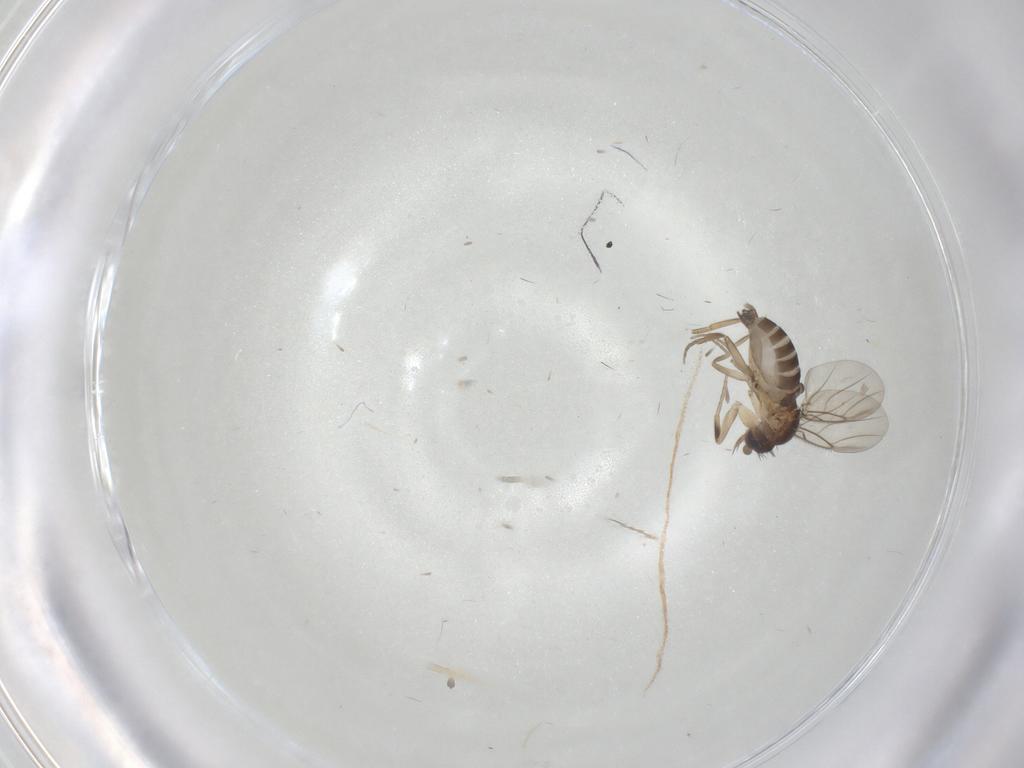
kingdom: Animalia
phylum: Arthropoda
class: Insecta
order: Diptera
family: Phoridae
